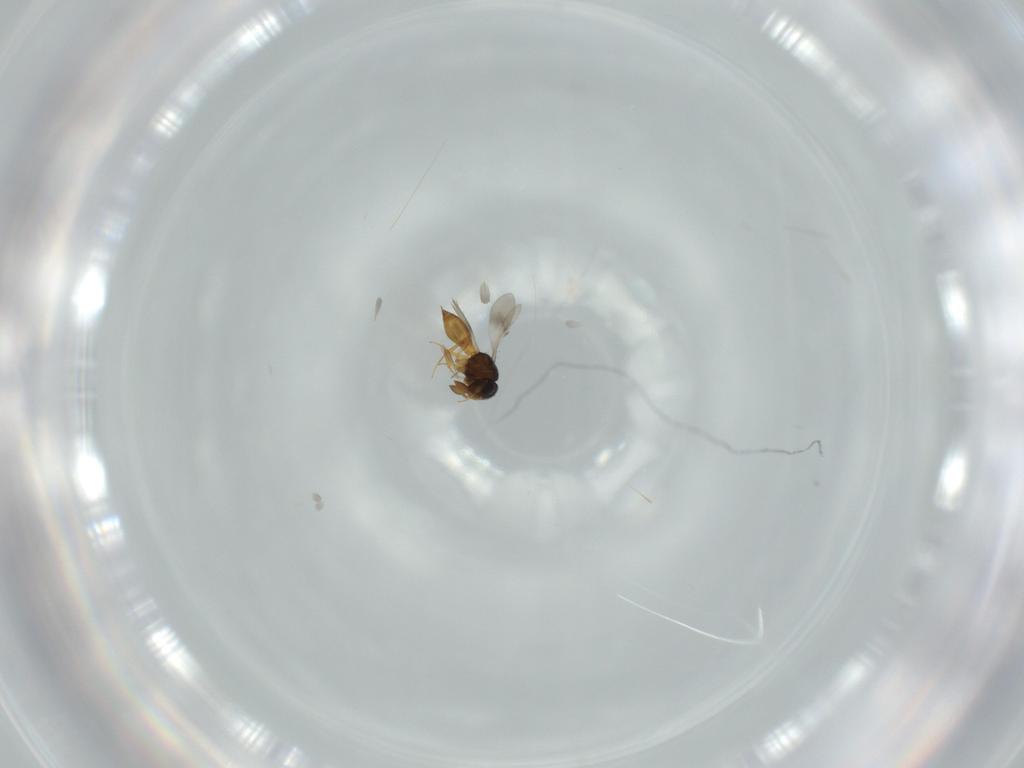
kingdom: Animalia
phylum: Arthropoda
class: Insecta
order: Hymenoptera
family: Scelionidae
